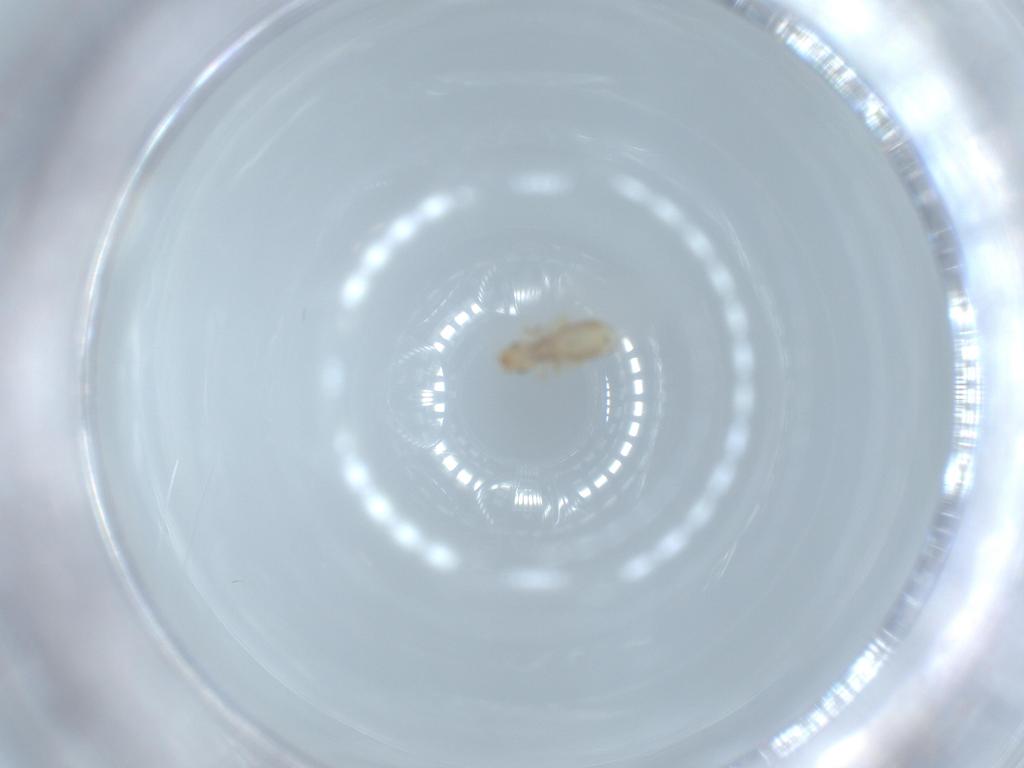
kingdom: Animalia
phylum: Arthropoda
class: Insecta
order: Psocodea
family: Liposcelididae
